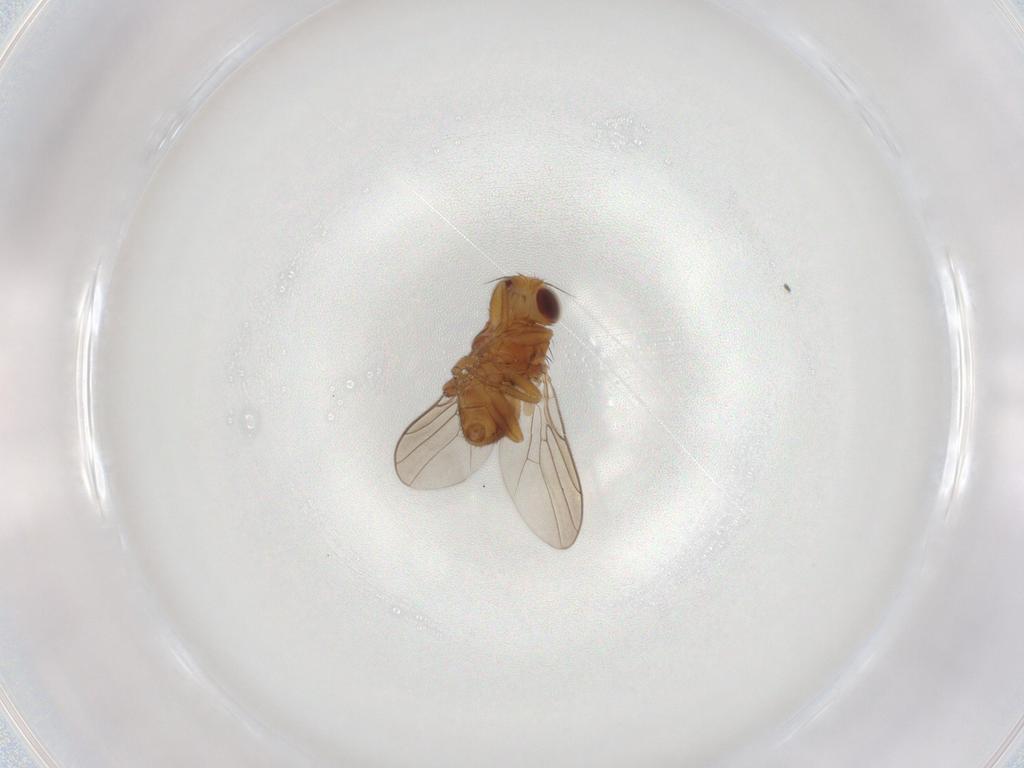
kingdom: Animalia
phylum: Arthropoda
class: Insecta
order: Diptera
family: Chloropidae
